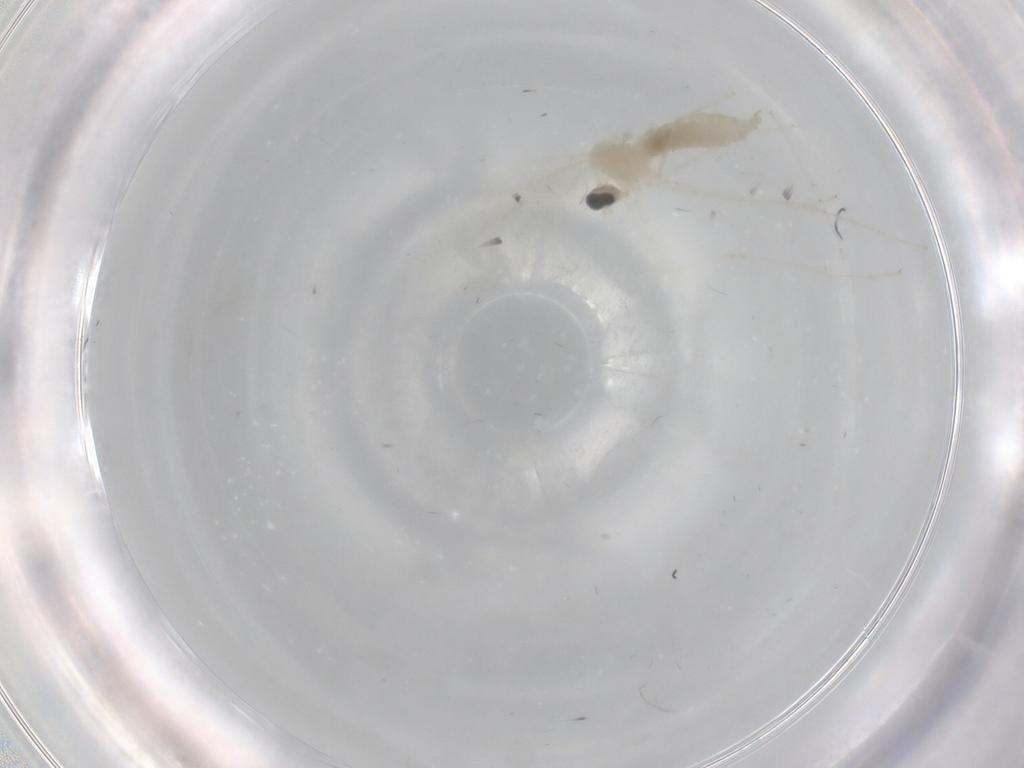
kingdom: Animalia
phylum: Arthropoda
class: Insecta
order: Diptera
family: Cecidomyiidae
